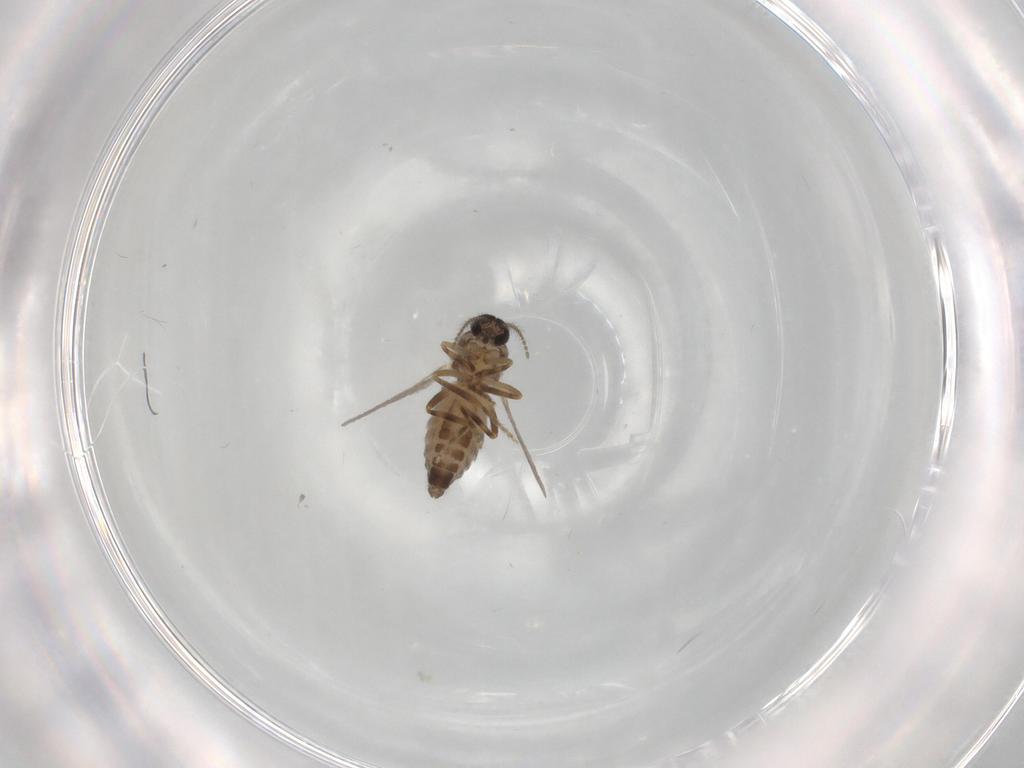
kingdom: Animalia
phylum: Arthropoda
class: Insecta
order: Diptera
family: Ceratopogonidae
